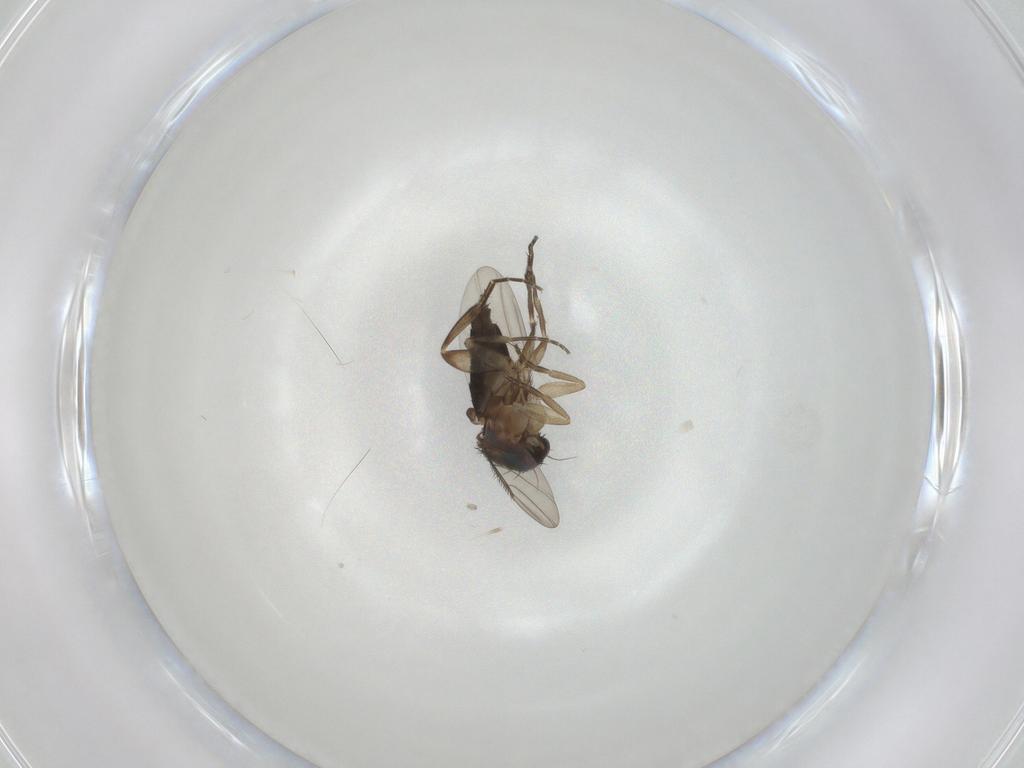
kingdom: Animalia
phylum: Arthropoda
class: Insecta
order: Diptera
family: Phoridae
